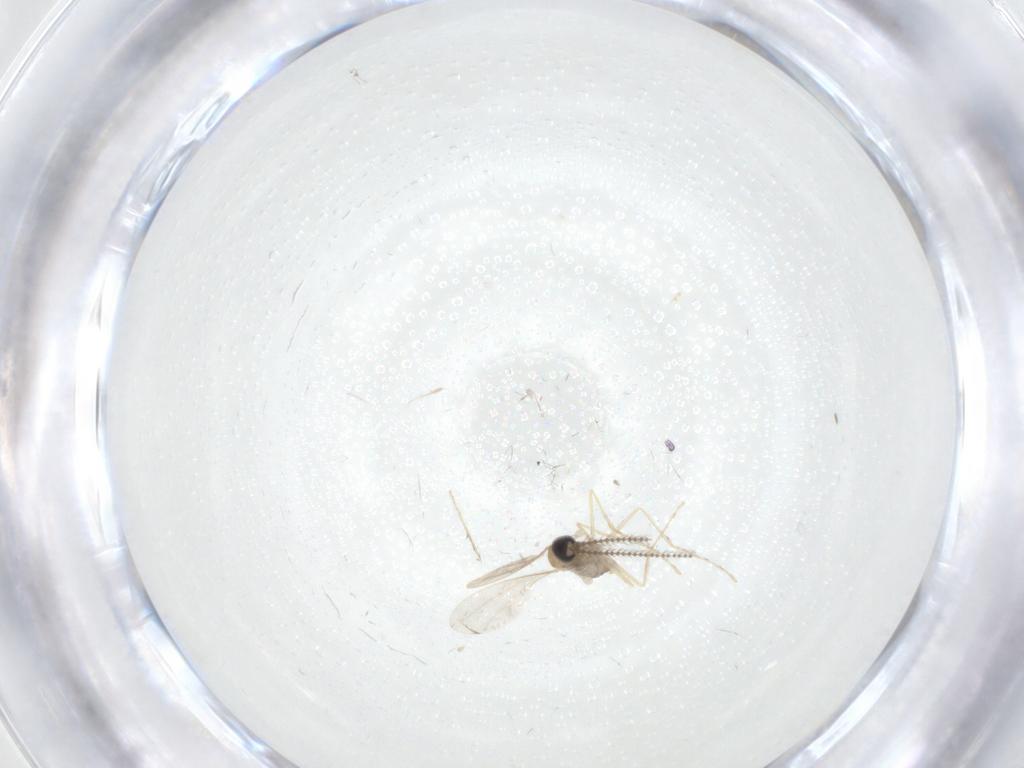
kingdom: Animalia
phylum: Arthropoda
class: Insecta
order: Diptera
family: Cecidomyiidae
